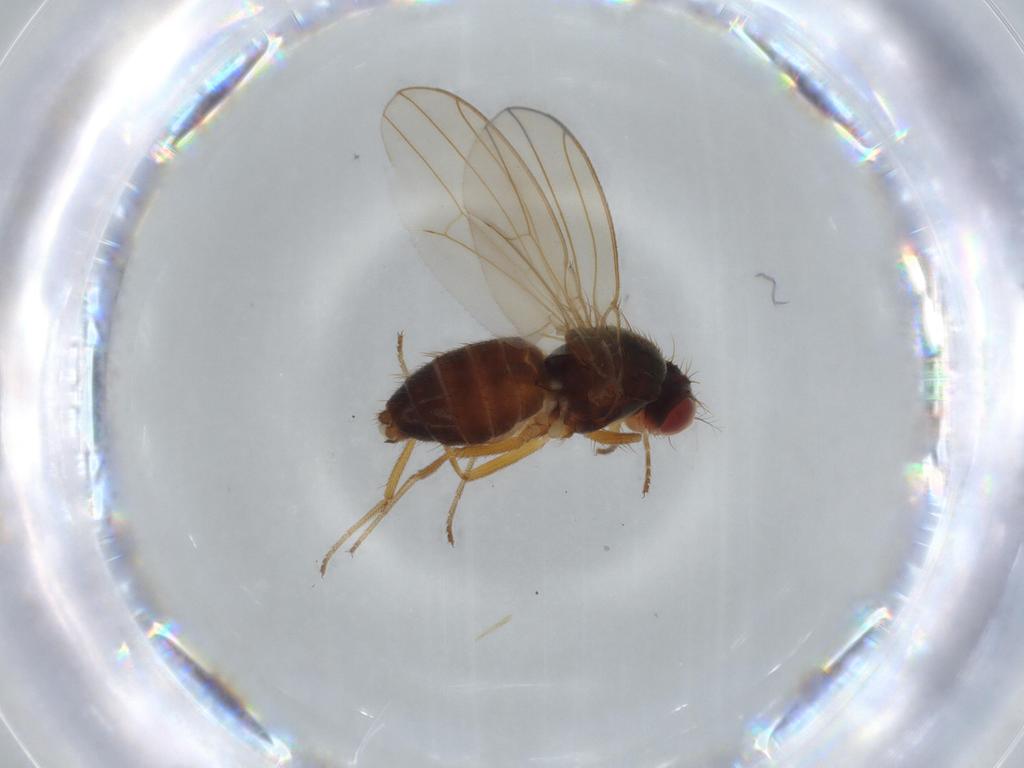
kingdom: Animalia
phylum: Arthropoda
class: Insecta
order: Diptera
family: Drosophilidae
